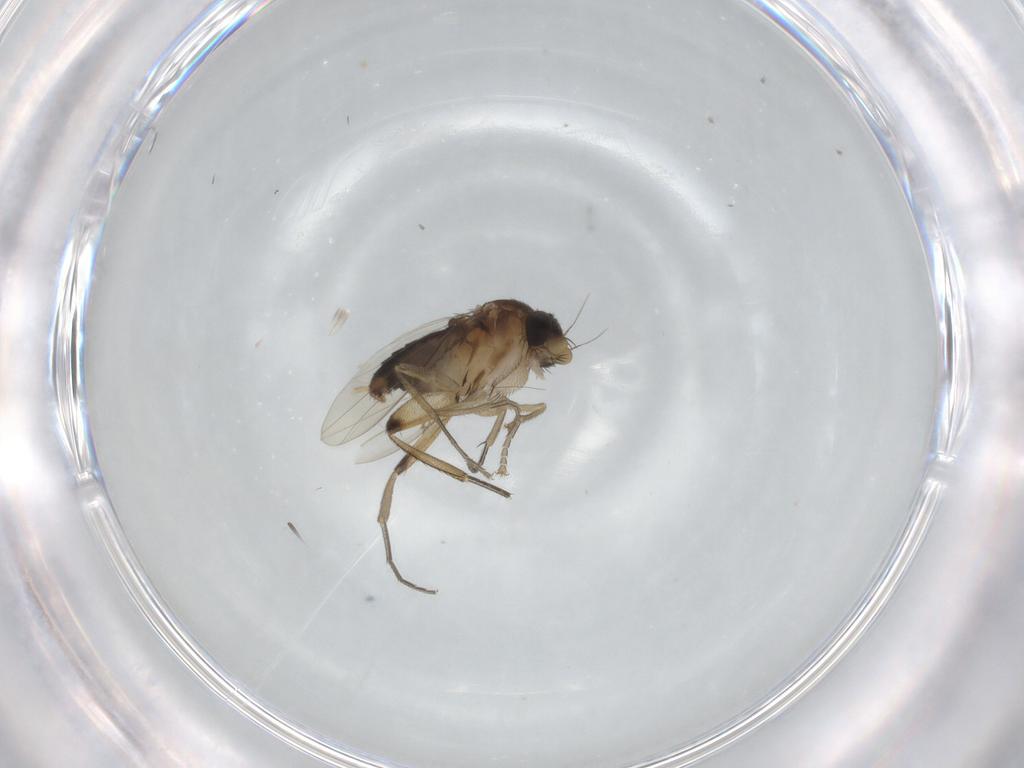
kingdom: Animalia
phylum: Arthropoda
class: Insecta
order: Diptera
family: Phoridae
